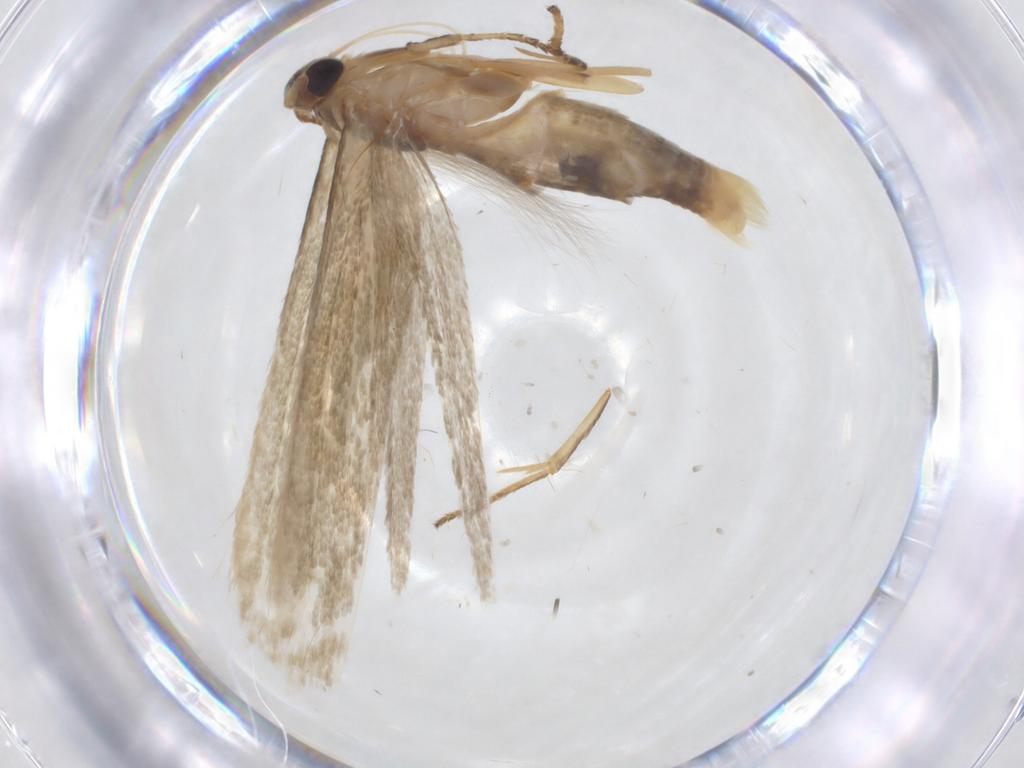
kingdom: Animalia
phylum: Arthropoda
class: Insecta
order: Lepidoptera
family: Stathmopodidae
